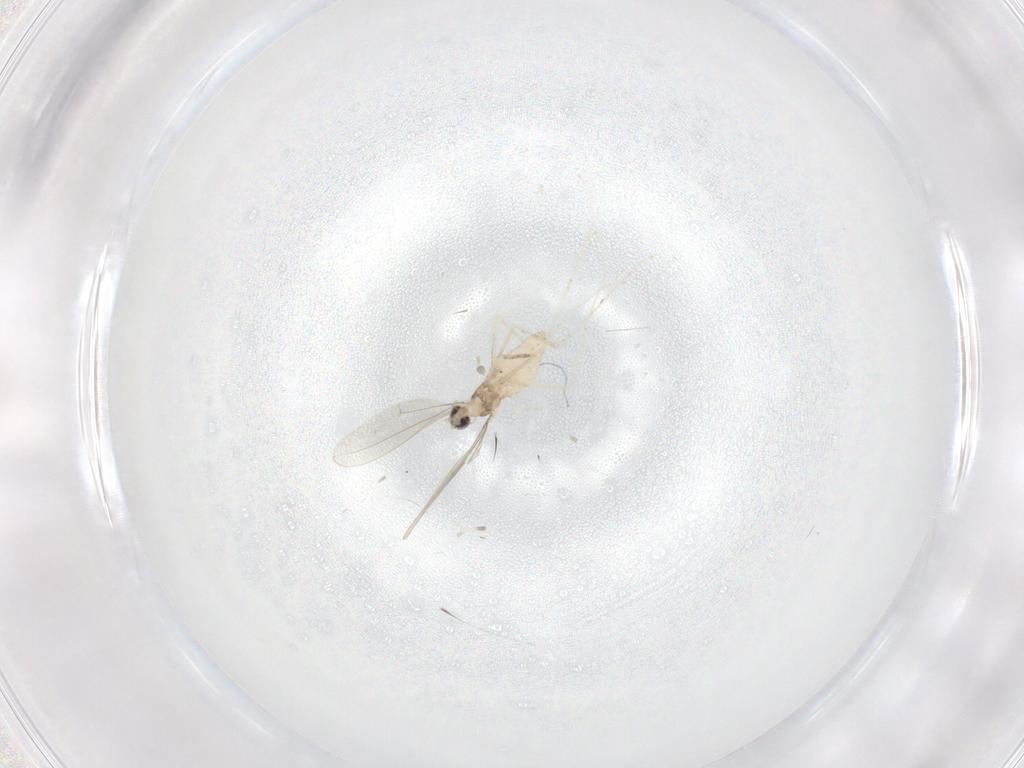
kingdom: Animalia
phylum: Arthropoda
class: Insecta
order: Diptera
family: Cecidomyiidae
